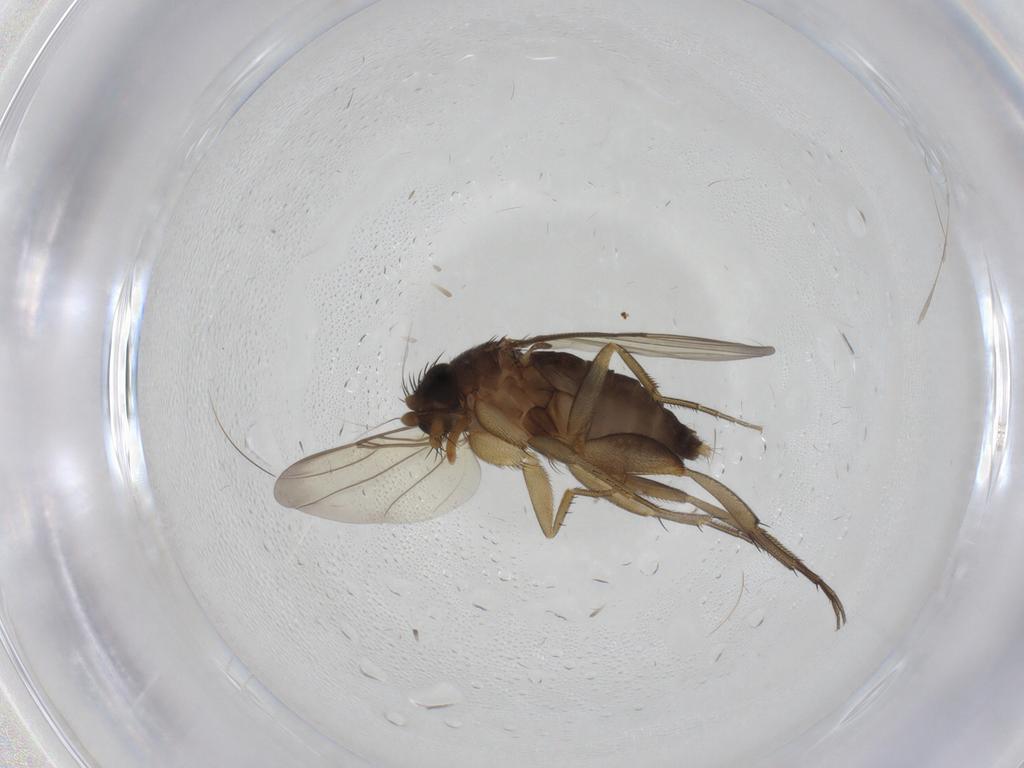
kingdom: Animalia
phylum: Arthropoda
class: Insecta
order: Diptera
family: Phoridae
